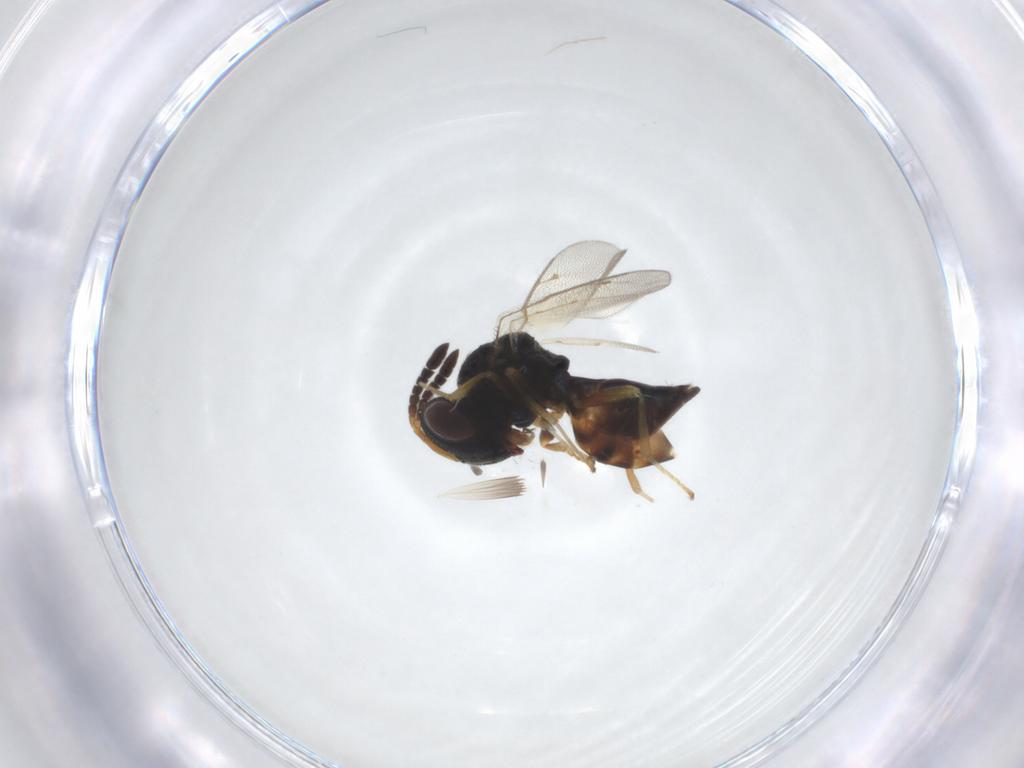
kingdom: Animalia
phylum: Arthropoda
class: Insecta
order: Hymenoptera
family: Pteromalidae
